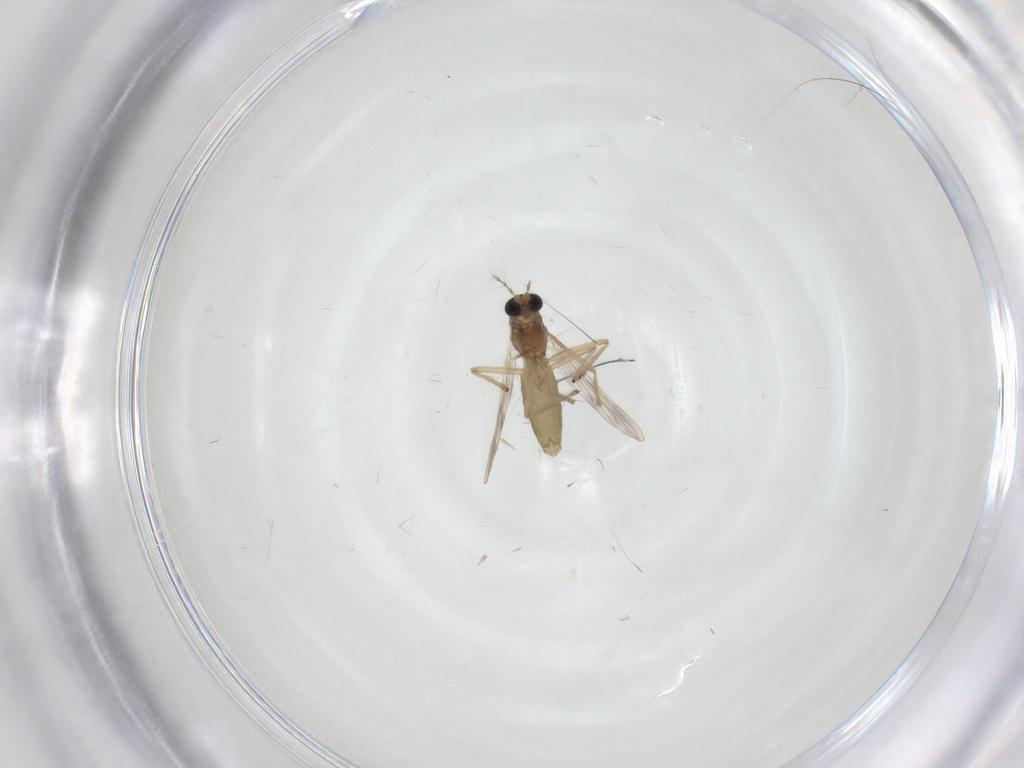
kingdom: Animalia
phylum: Arthropoda
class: Insecta
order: Diptera
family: Chironomidae
